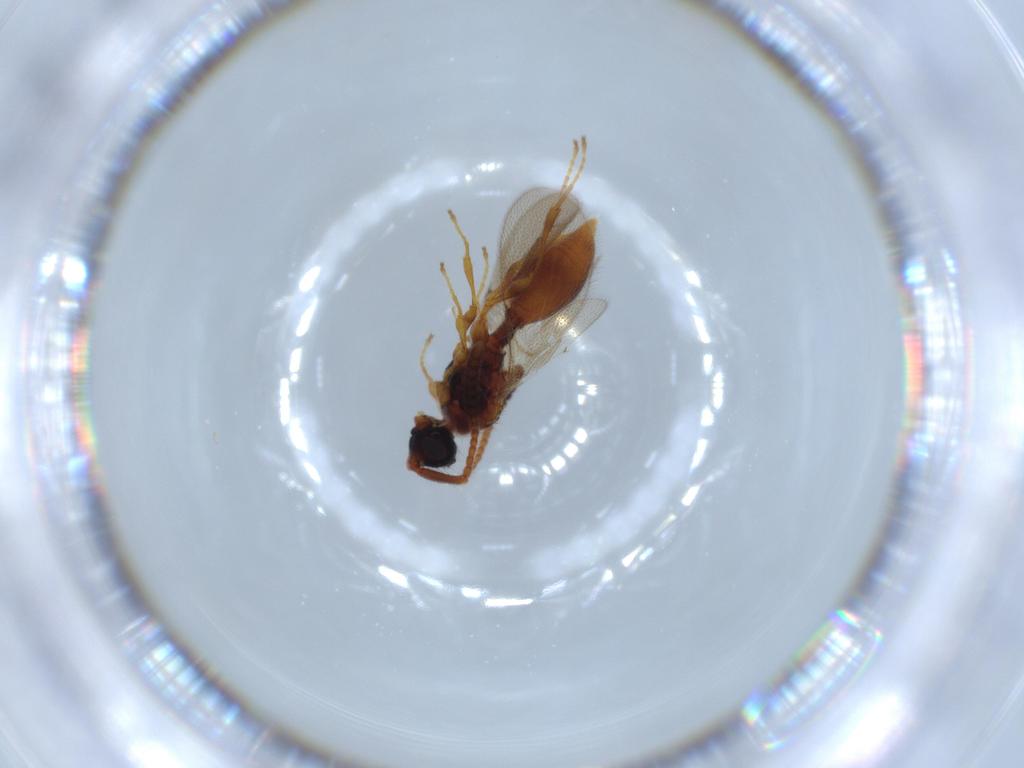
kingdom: Animalia
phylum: Arthropoda
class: Insecta
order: Hymenoptera
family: Diapriidae
